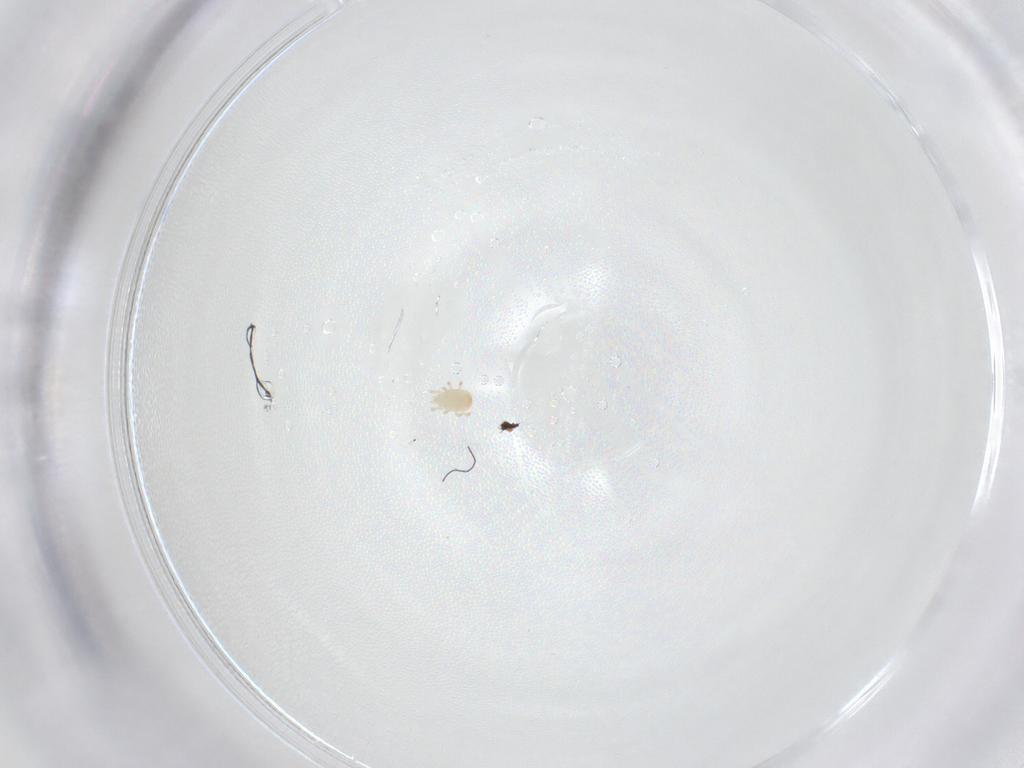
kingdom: Animalia
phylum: Arthropoda
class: Arachnida
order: Mesostigmata
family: Zerconidae
